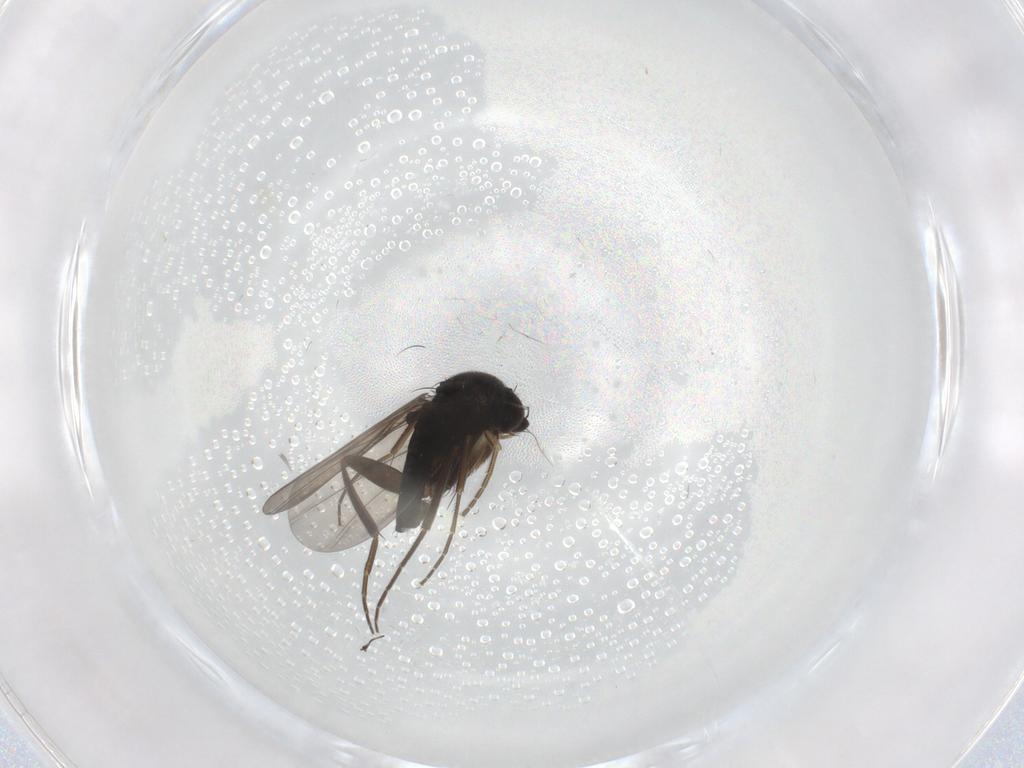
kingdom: Animalia
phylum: Arthropoda
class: Insecta
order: Diptera
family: Phoridae
